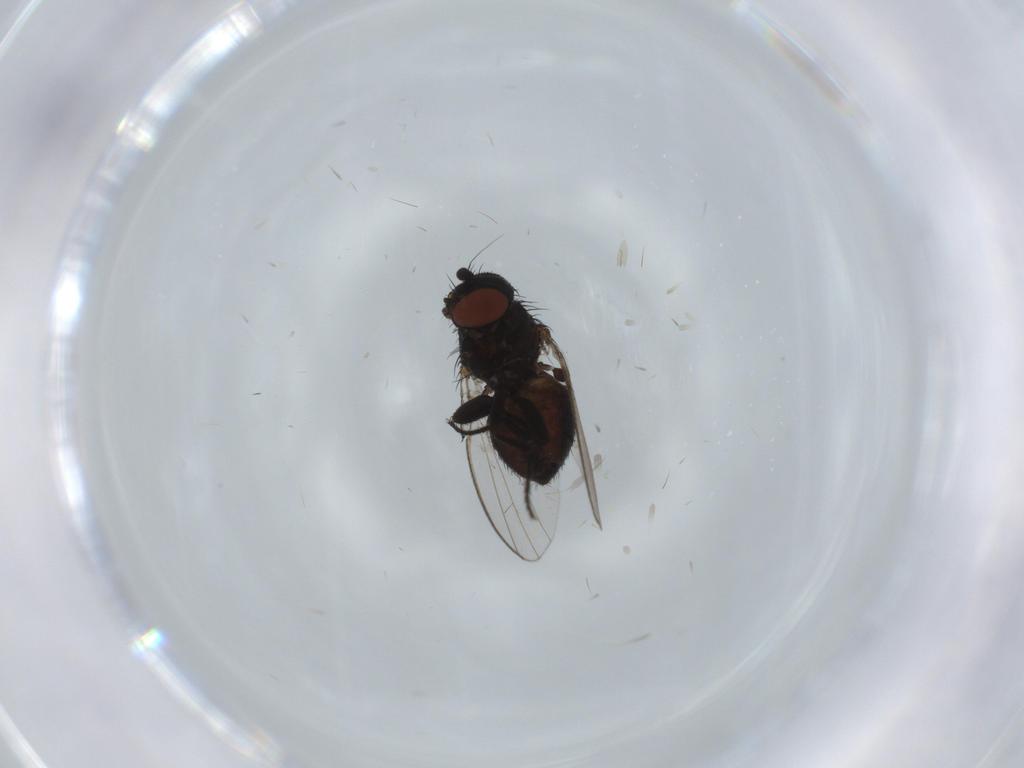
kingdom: Animalia
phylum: Arthropoda
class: Insecta
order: Diptera
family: Milichiidae
